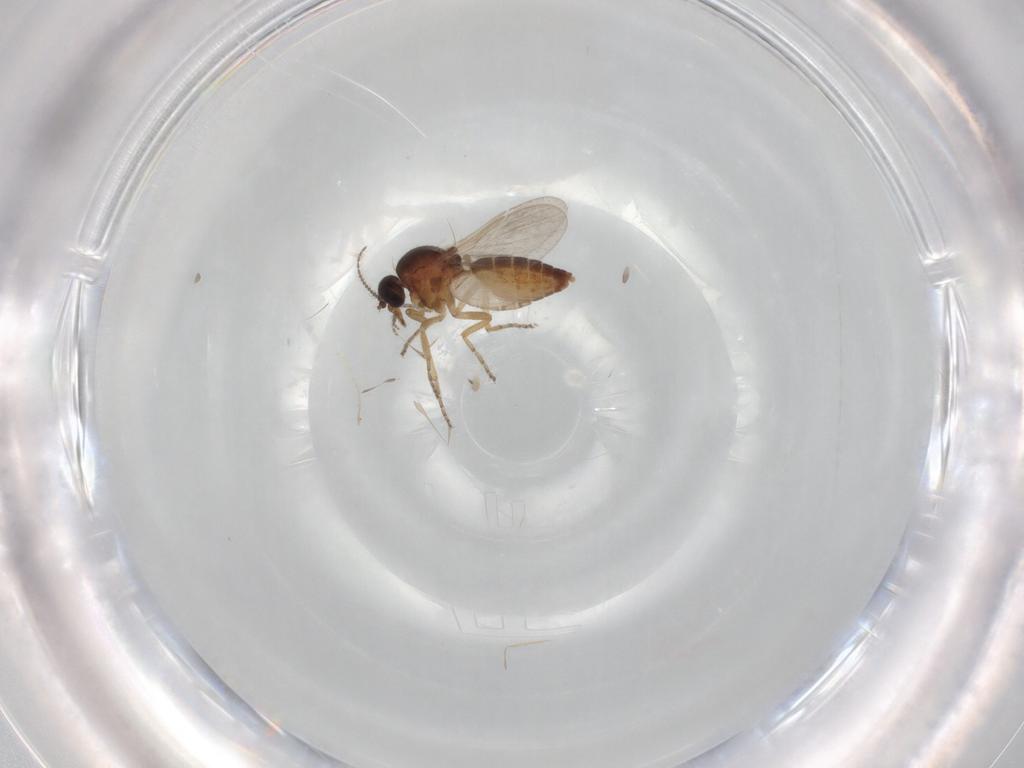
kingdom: Animalia
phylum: Arthropoda
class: Insecta
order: Diptera
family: Ceratopogonidae
